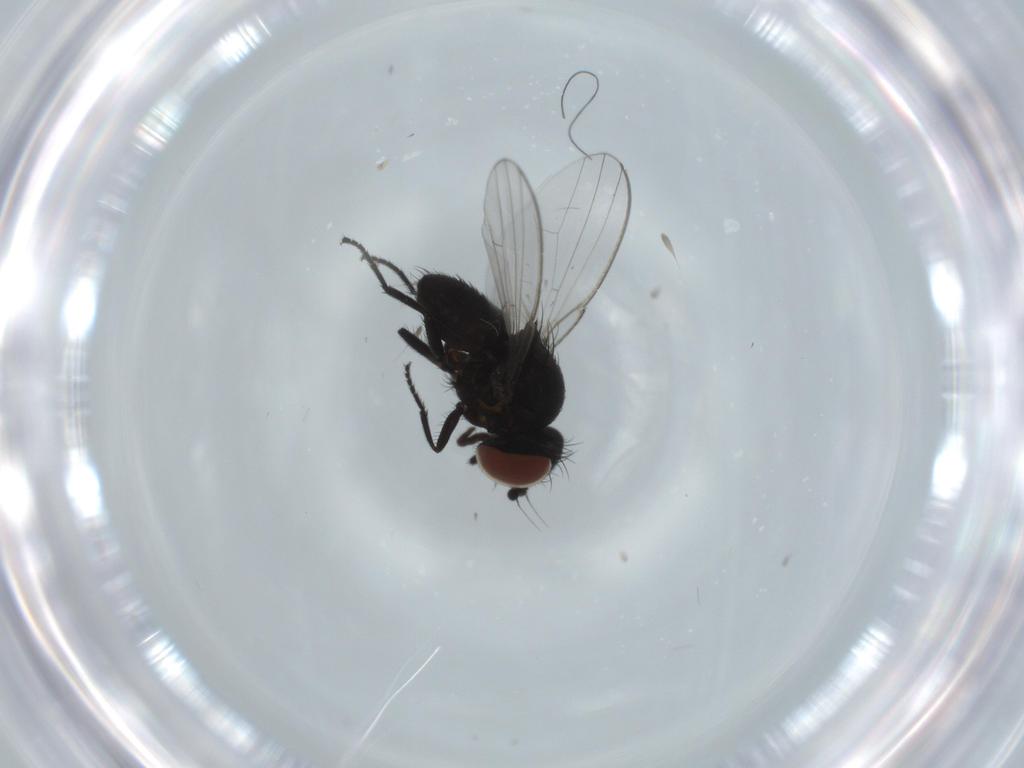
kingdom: Animalia
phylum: Arthropoda
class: Insecta
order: Diptera
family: Milichiidae
